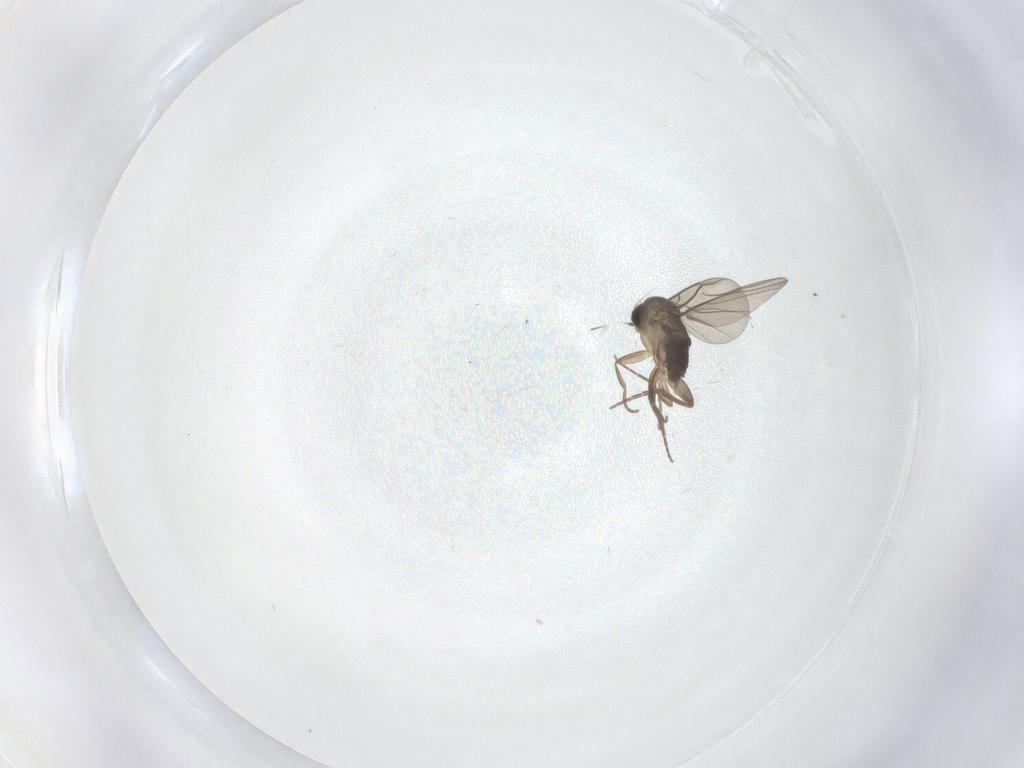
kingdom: Animalia
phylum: Arthropoda
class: Insecta
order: Diptera
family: Phoridae
